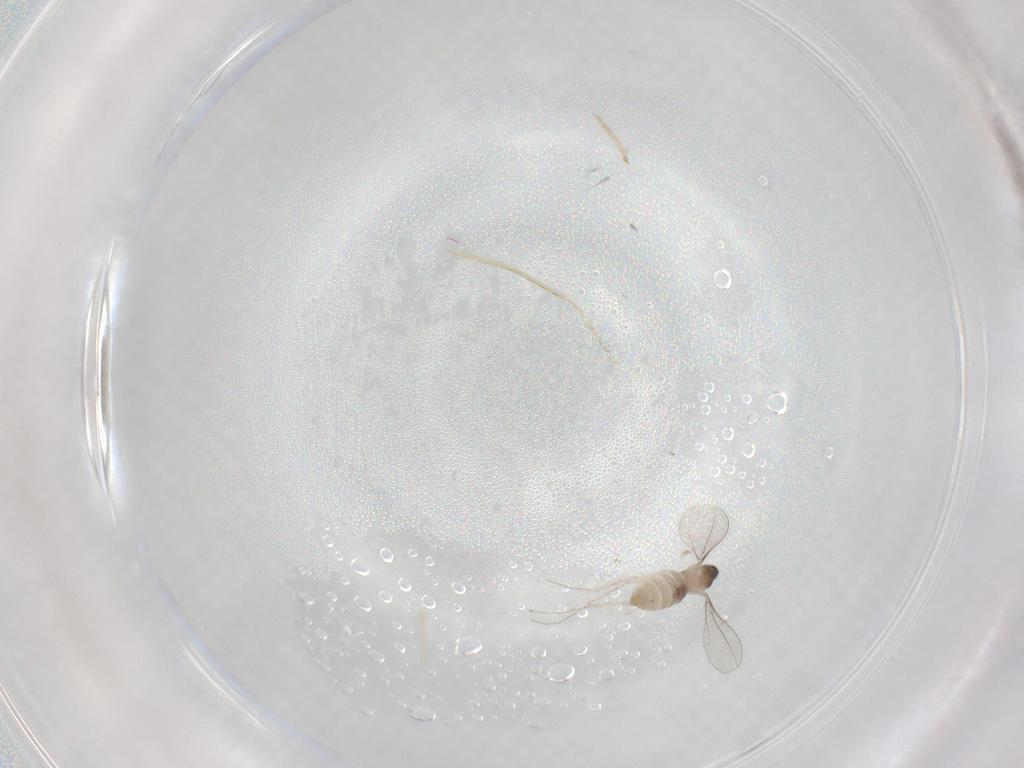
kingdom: Animalia
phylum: Arthropoda
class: Insecta
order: Diptera
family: Cecidomyiidae
